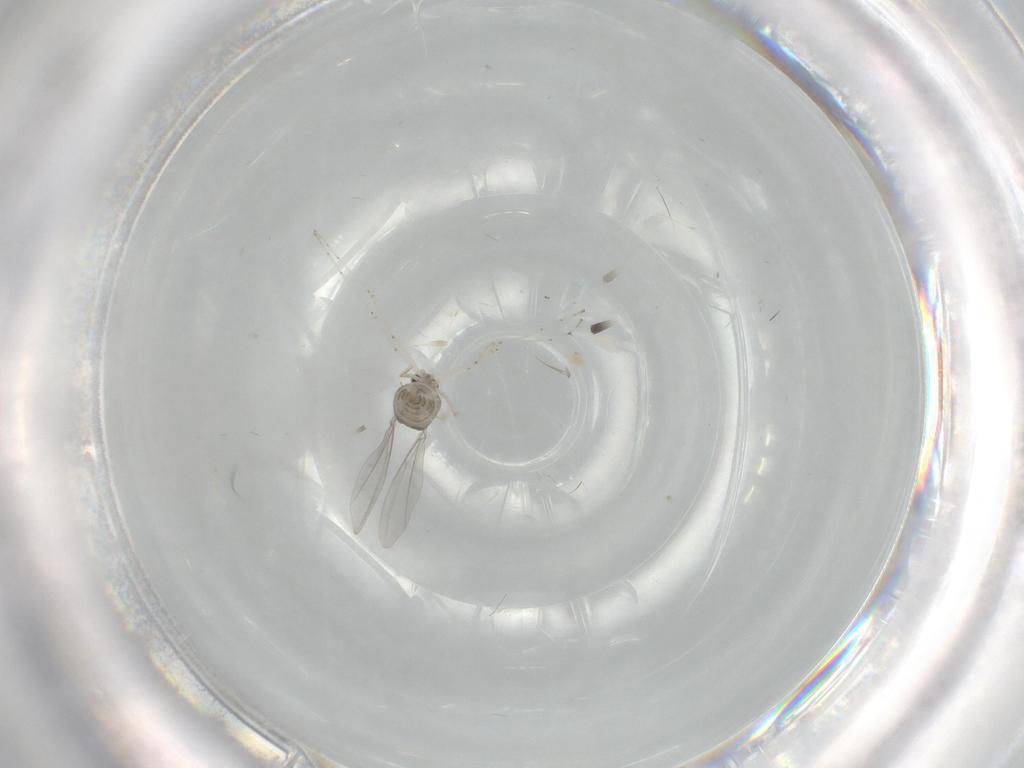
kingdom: Animalia
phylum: Arthropoda
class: Insecta
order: Diptera
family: Cecidomyiidae
